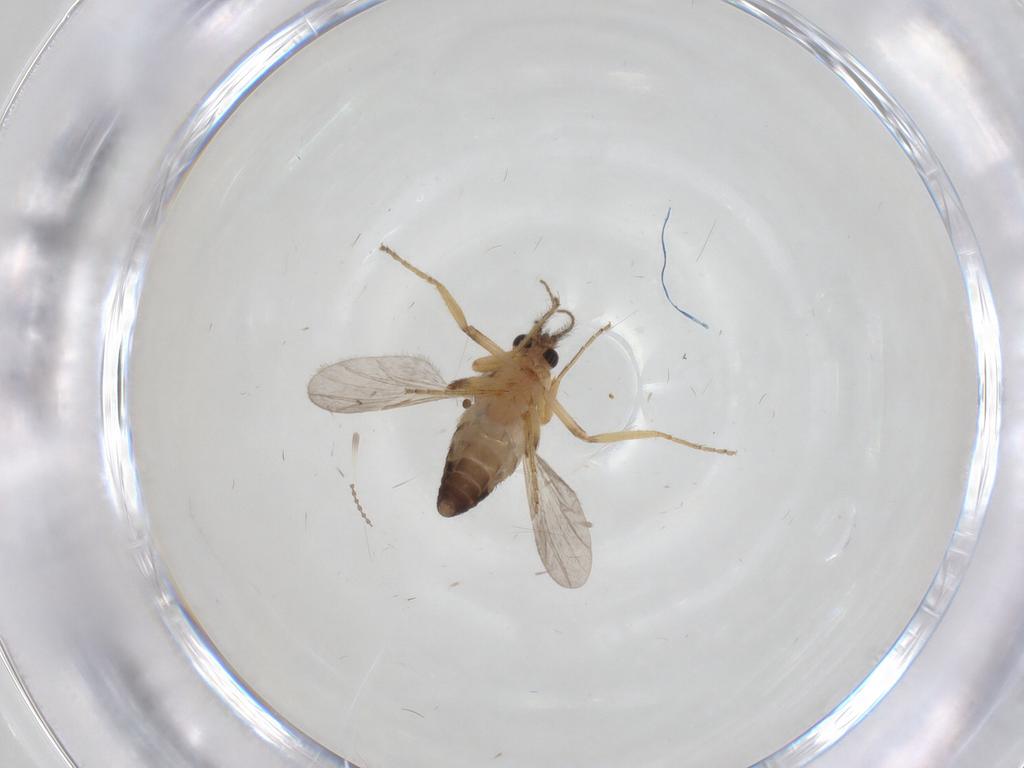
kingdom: Animalia
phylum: Arthropoda
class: Insecta
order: Diptera
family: Ceratopogonidae
